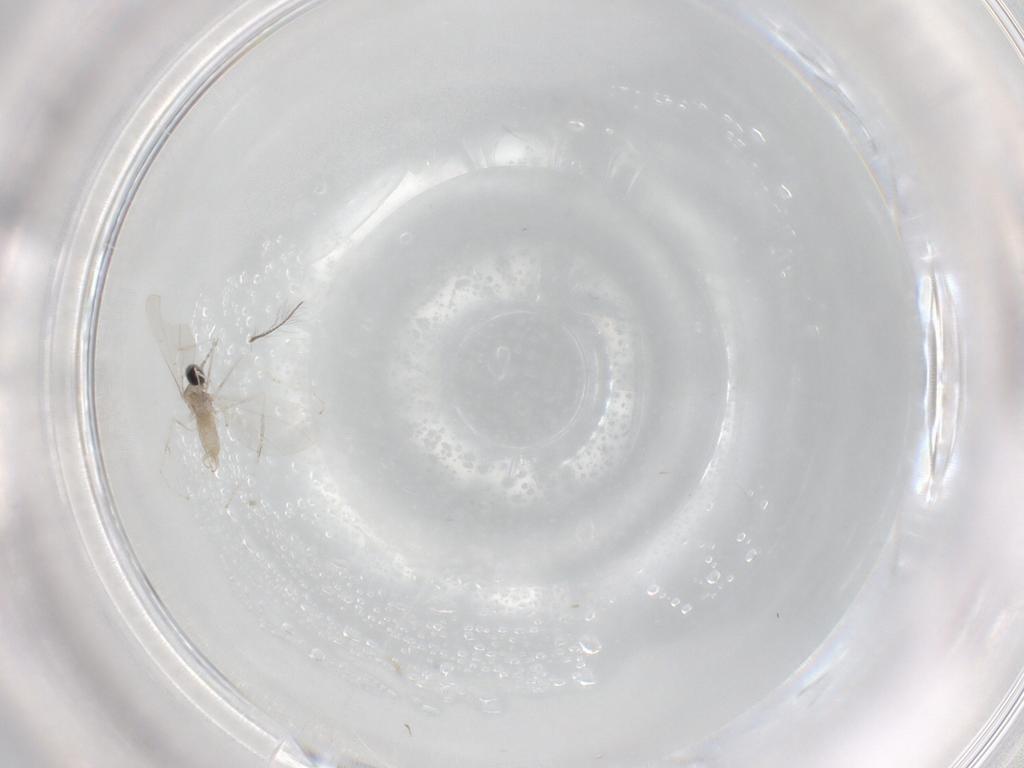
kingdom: Animalia
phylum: Arthropoda
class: Insecta
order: Diptera
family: Cecidomyiidae
